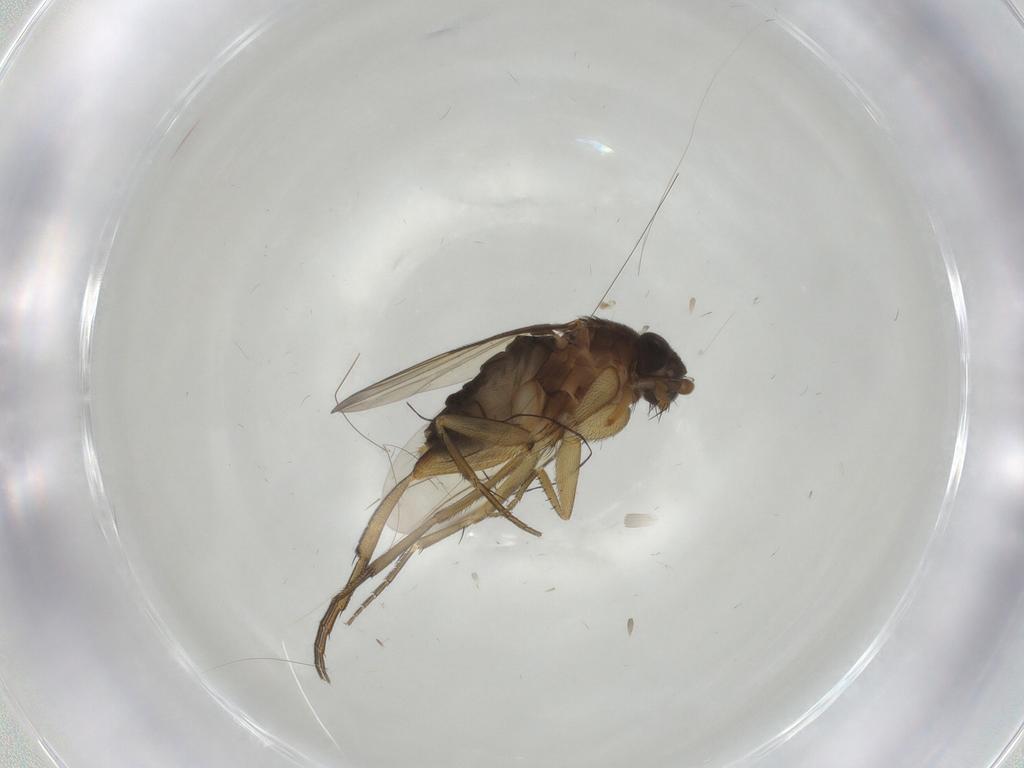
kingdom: Animalia
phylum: Arthropoda
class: Insecta
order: Diptera
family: Phoridae
